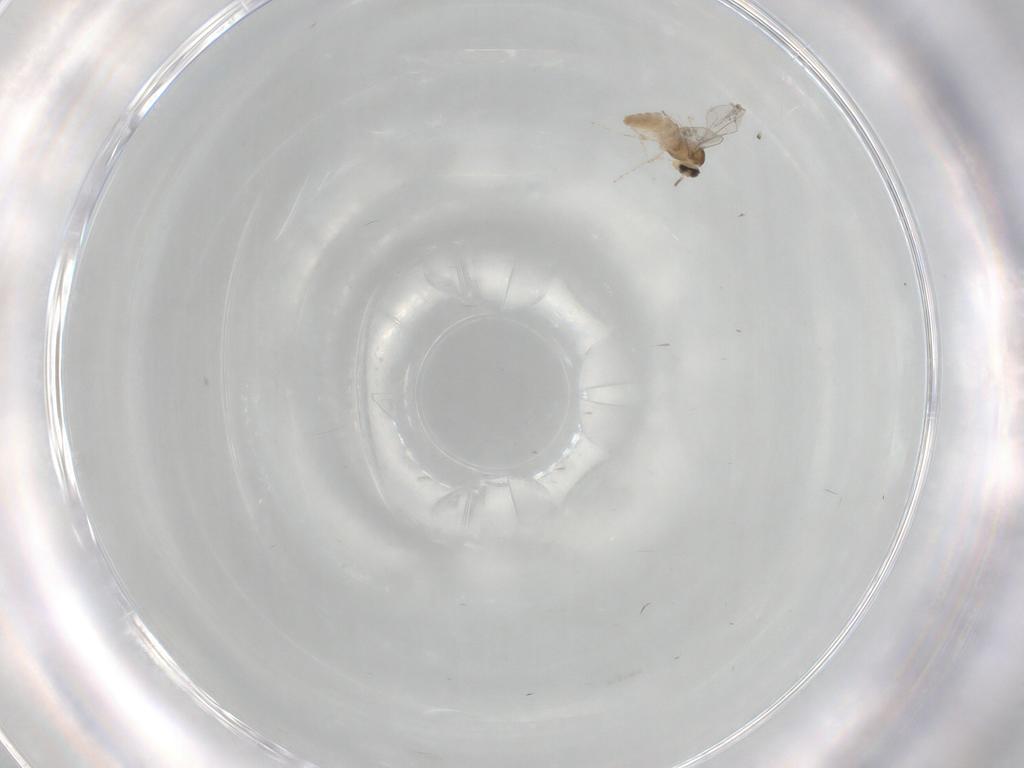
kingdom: Animalia
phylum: Arthropoda
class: Insecta
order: Diptera
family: Cecidomyiidae
